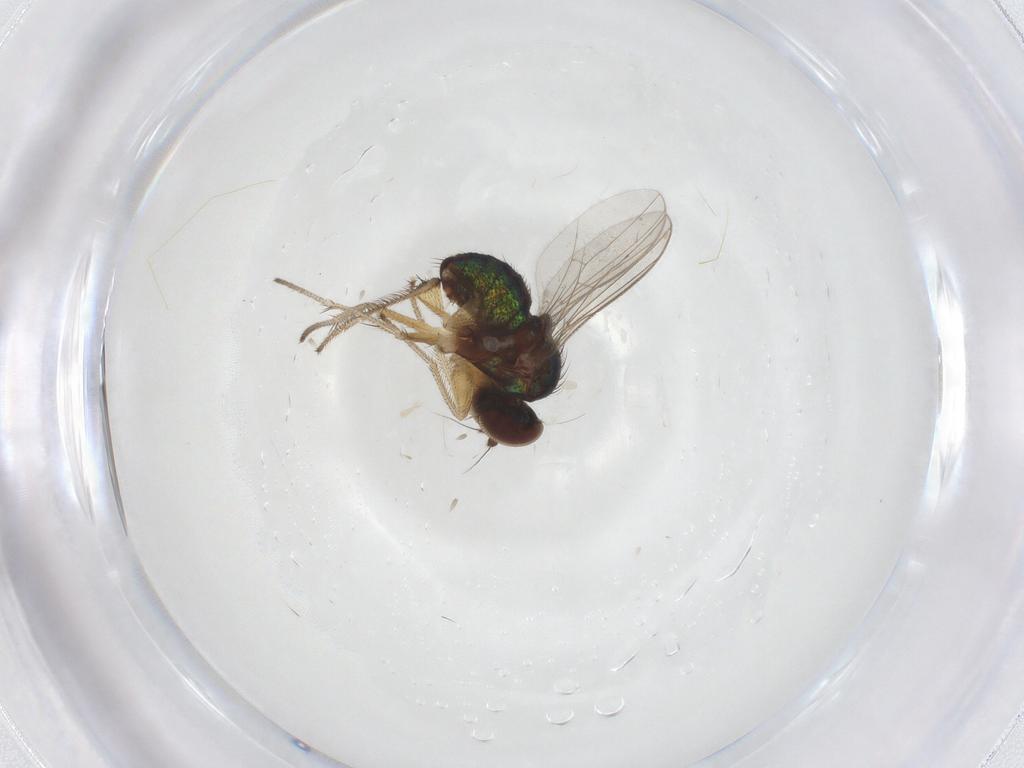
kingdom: Animalia
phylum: Arthropoda
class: Insecta
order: Diptera
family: Dolichopodidae
